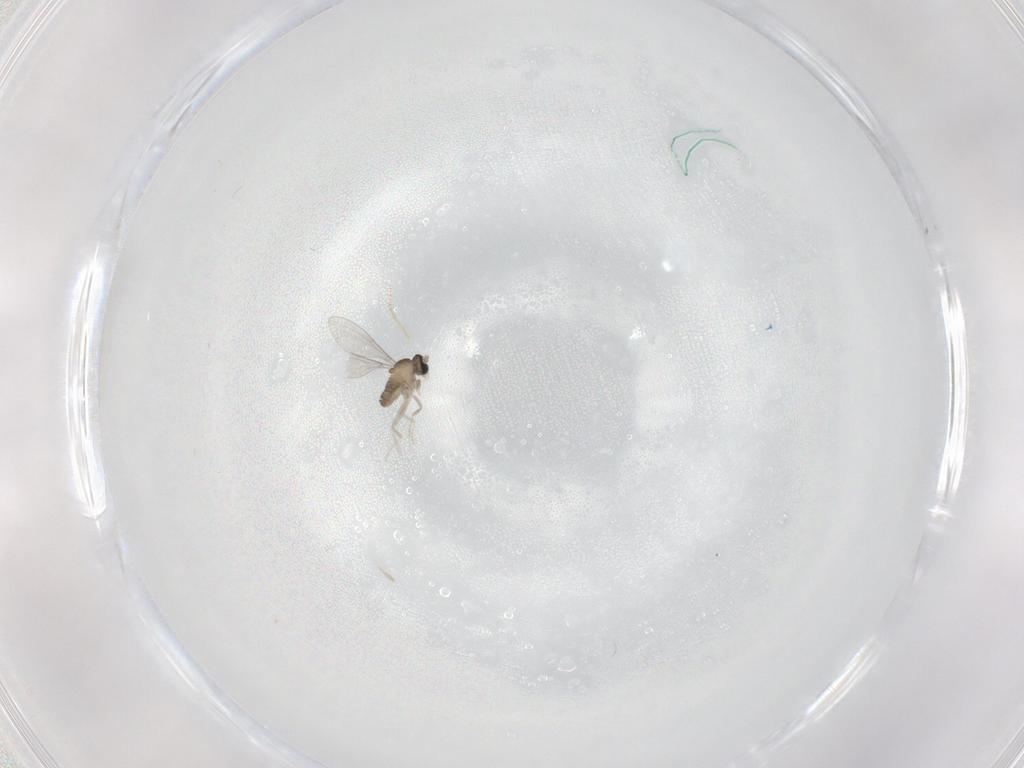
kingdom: Animalia
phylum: Arthropoda
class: Insecta
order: Diptera
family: Cecidomyiidae
